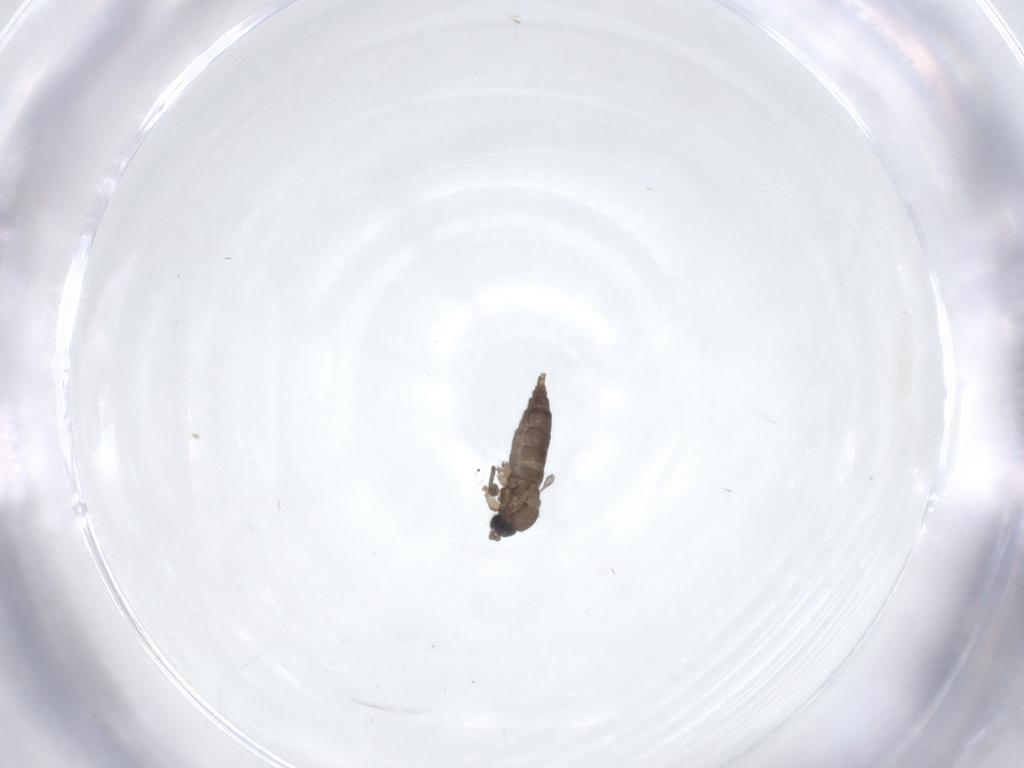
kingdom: Animalia
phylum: Arthropoda
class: Insecta
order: Diptera
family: Sciaridae
